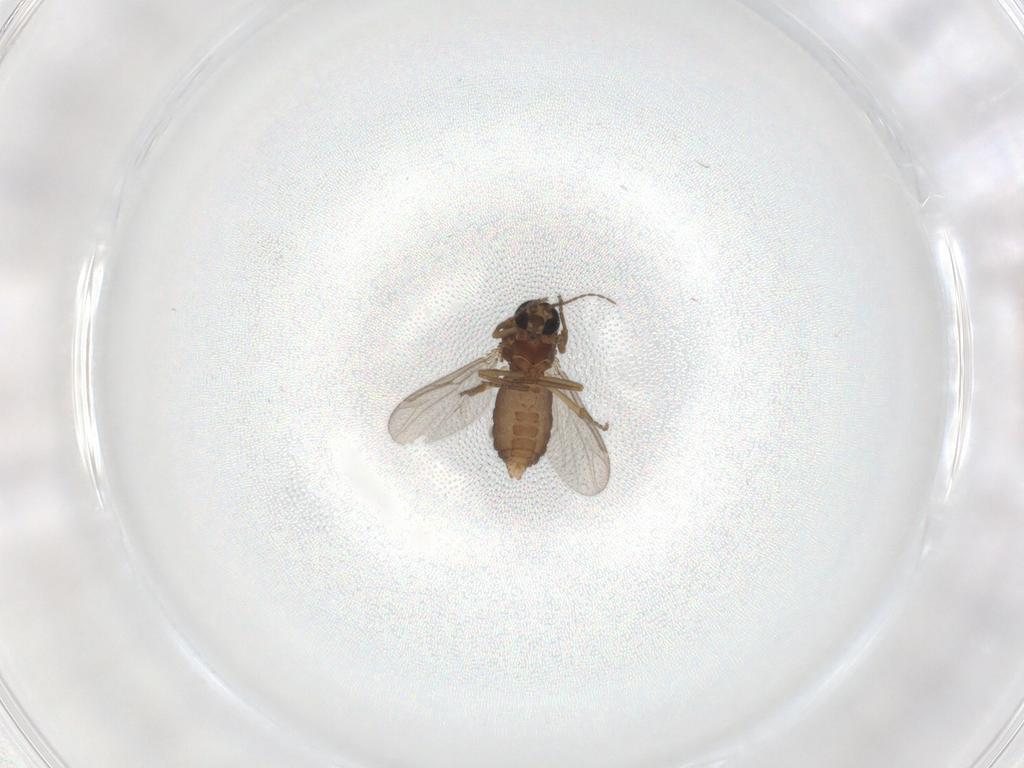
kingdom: Animalia
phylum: Arthropoda
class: Insecta
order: Diptera
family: Ceratopogonidae
